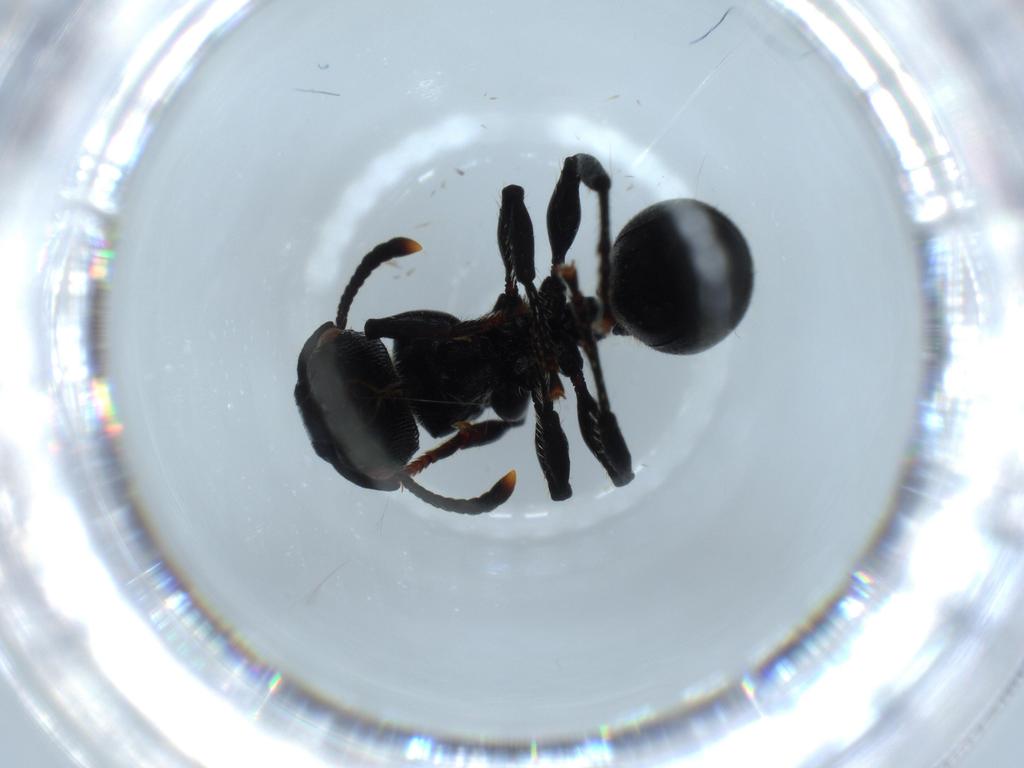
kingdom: Animalia
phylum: Arthropoda
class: Insecta
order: Hymenoptera
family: Formicidae
